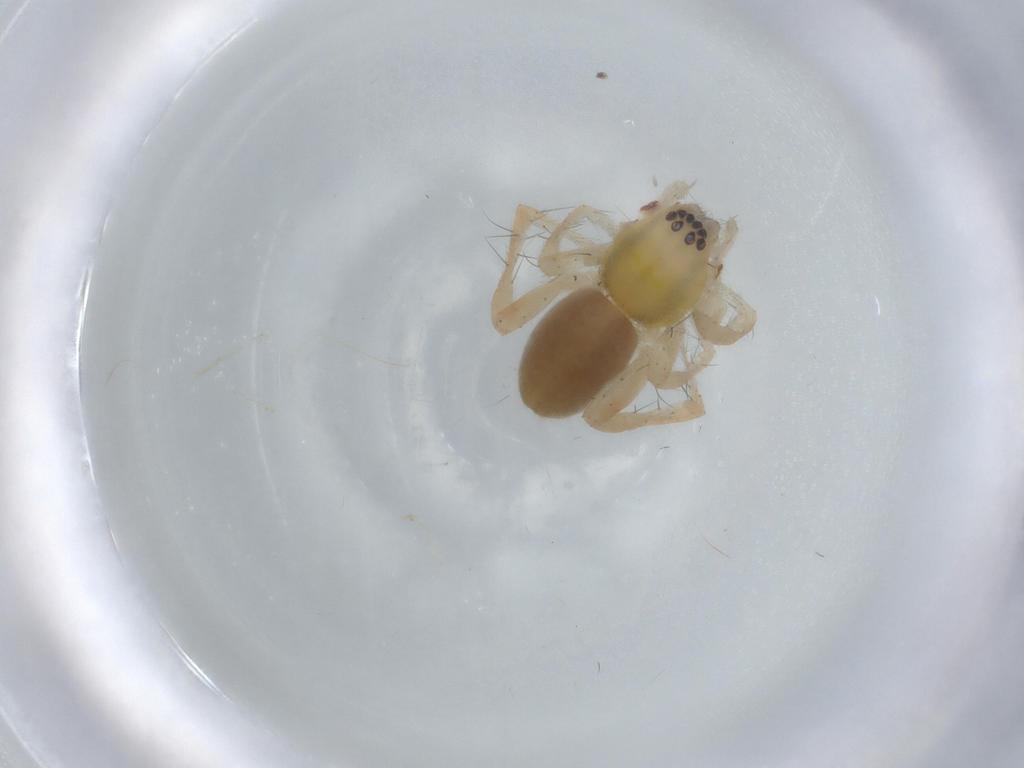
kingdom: Animalia
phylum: Arthropoda
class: Arachnida
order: Araneae
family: Anyphaenidae
